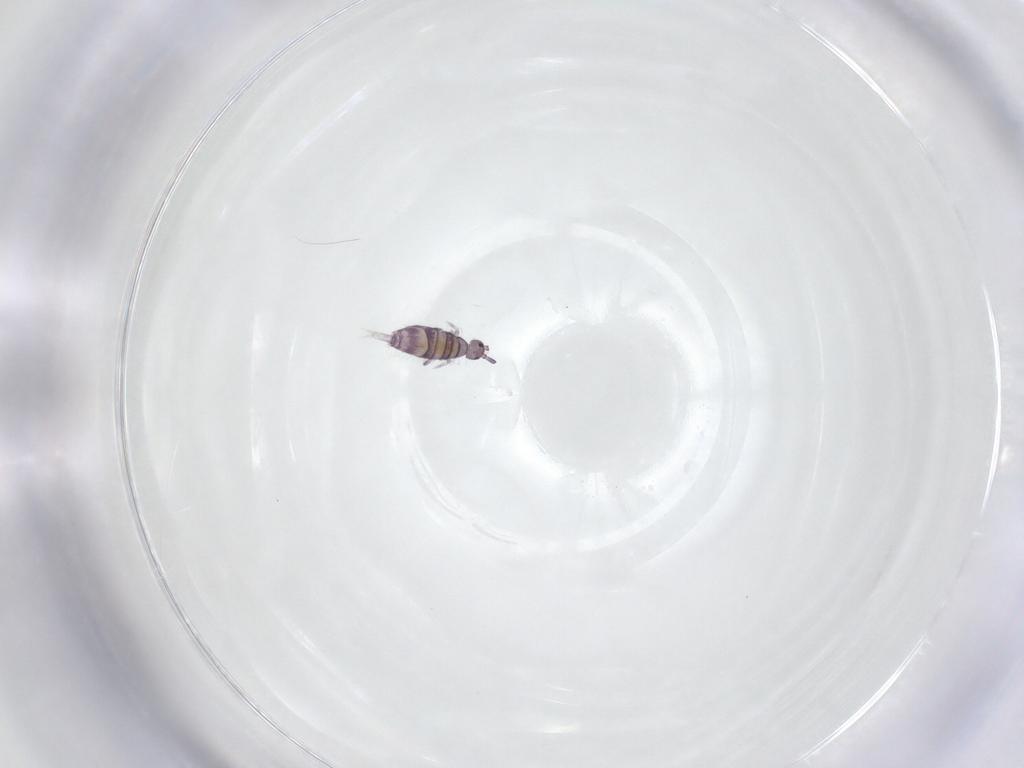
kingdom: Animalia
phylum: Arthropoda
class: Collembola
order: Entomobryomorpha
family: Entomobryidae
